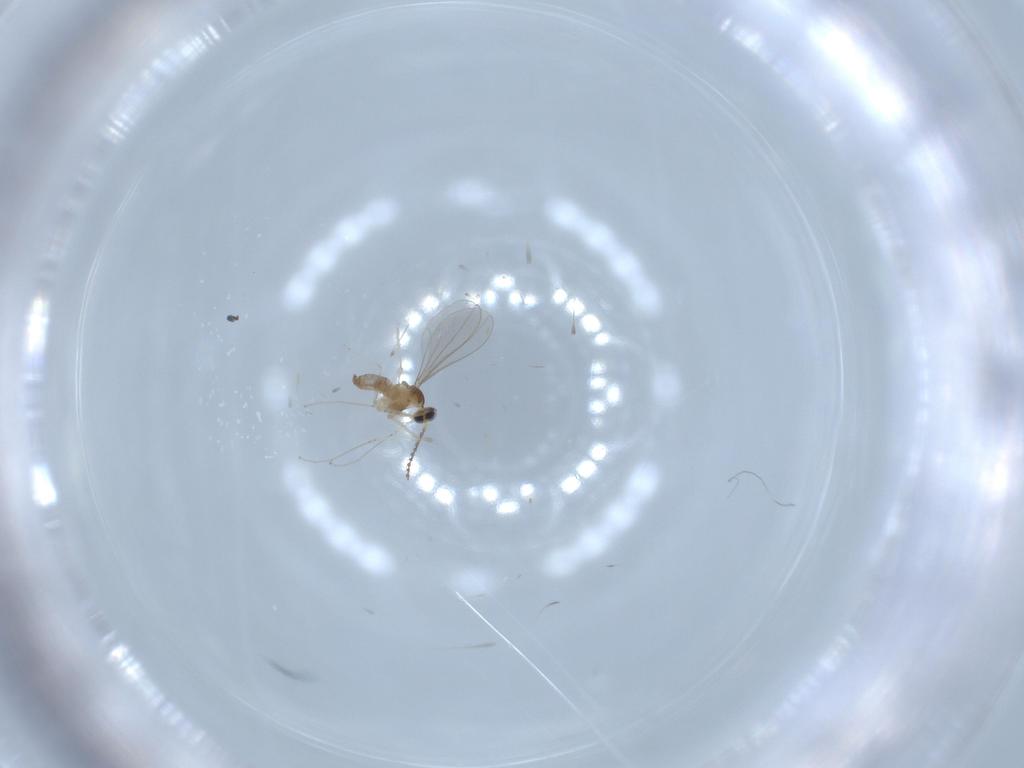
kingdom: Animalia
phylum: Arthropoda
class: Insecta
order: Diptera
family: Cecidomyiidae
